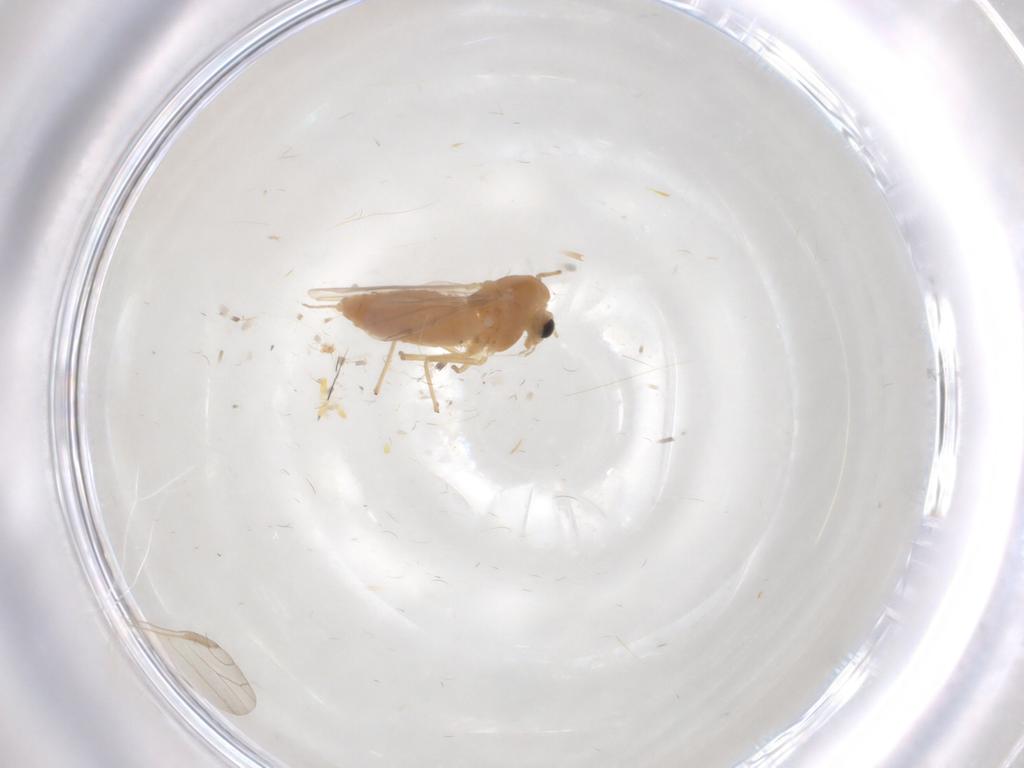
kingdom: Animalia
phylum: Arthropoda
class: Insecta
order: Diptera
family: Chironomidae
